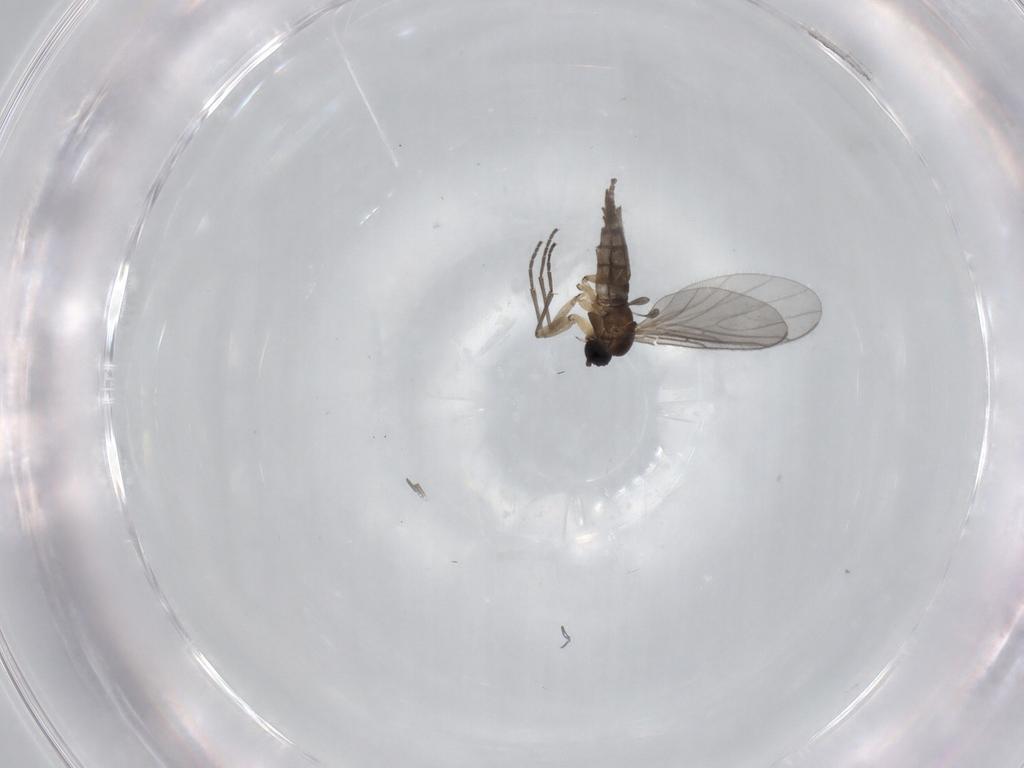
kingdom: Animalia
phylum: Arthropoda
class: Insecta
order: Diptera
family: Sciaridae
